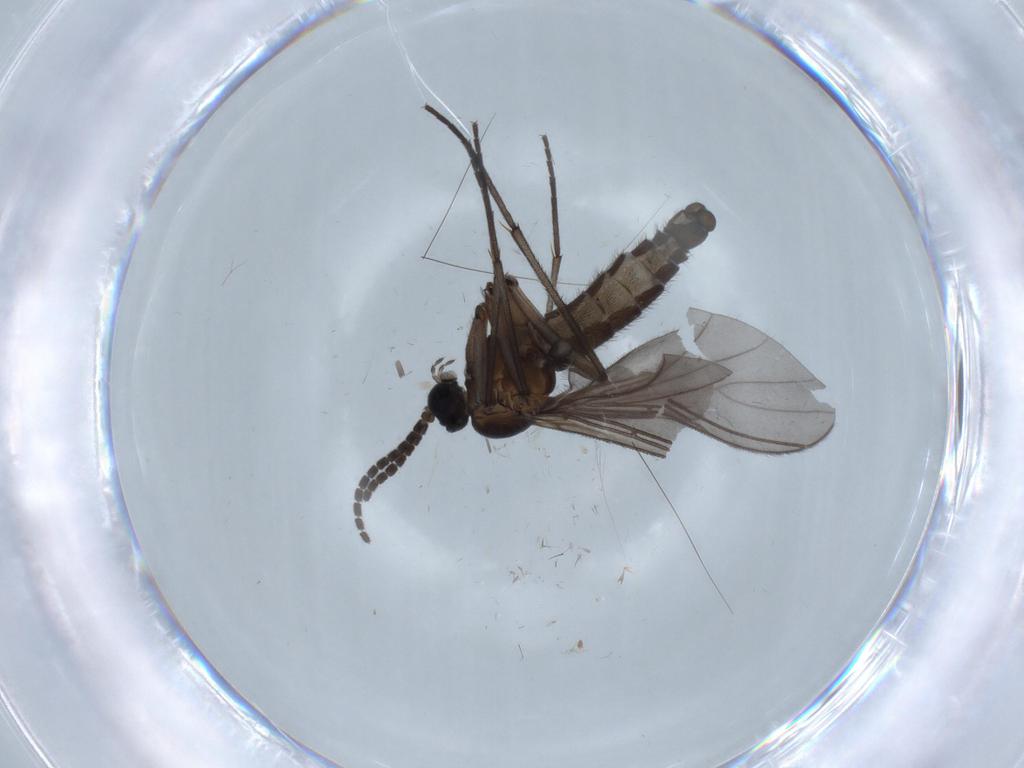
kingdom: Animalia
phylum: Arthropoda
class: Insecta
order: Diptera
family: Sciaridae
